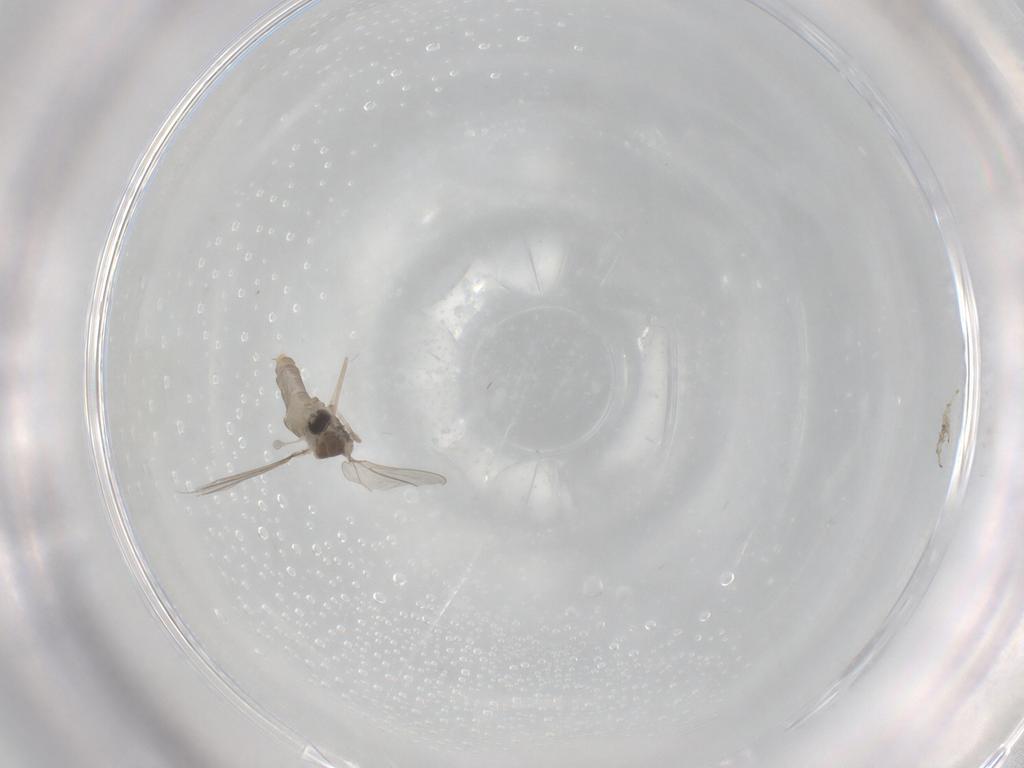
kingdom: Animalia
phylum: Arthropoda
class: Insecta
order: Diptera
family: Cecidomyiidae
